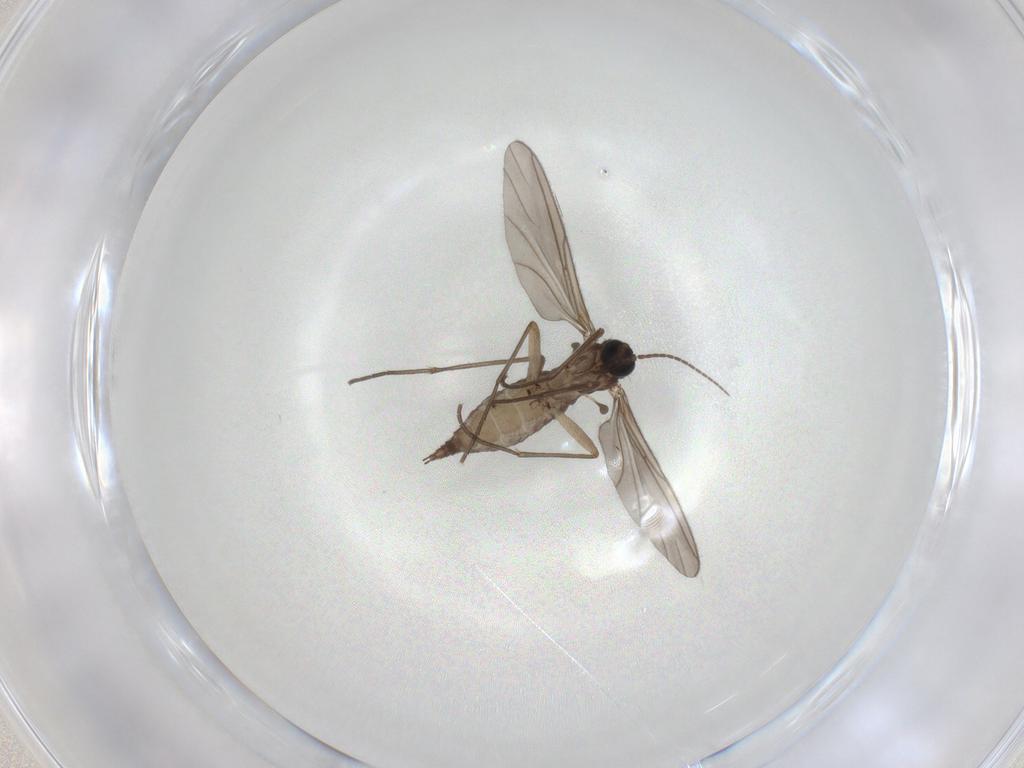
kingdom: Animalia
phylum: Arthropoda
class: Insecta
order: Diptera
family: Sciaridae
